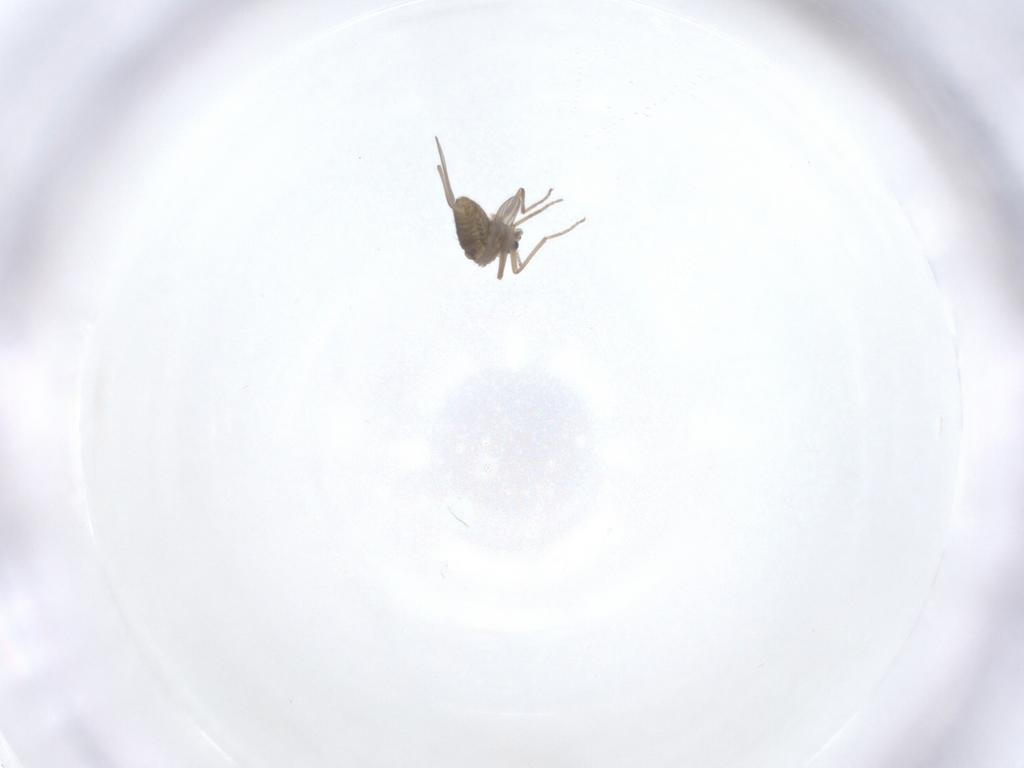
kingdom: Animalia
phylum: Arthropoda
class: Insecta
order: Diptera
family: Chironomidae
